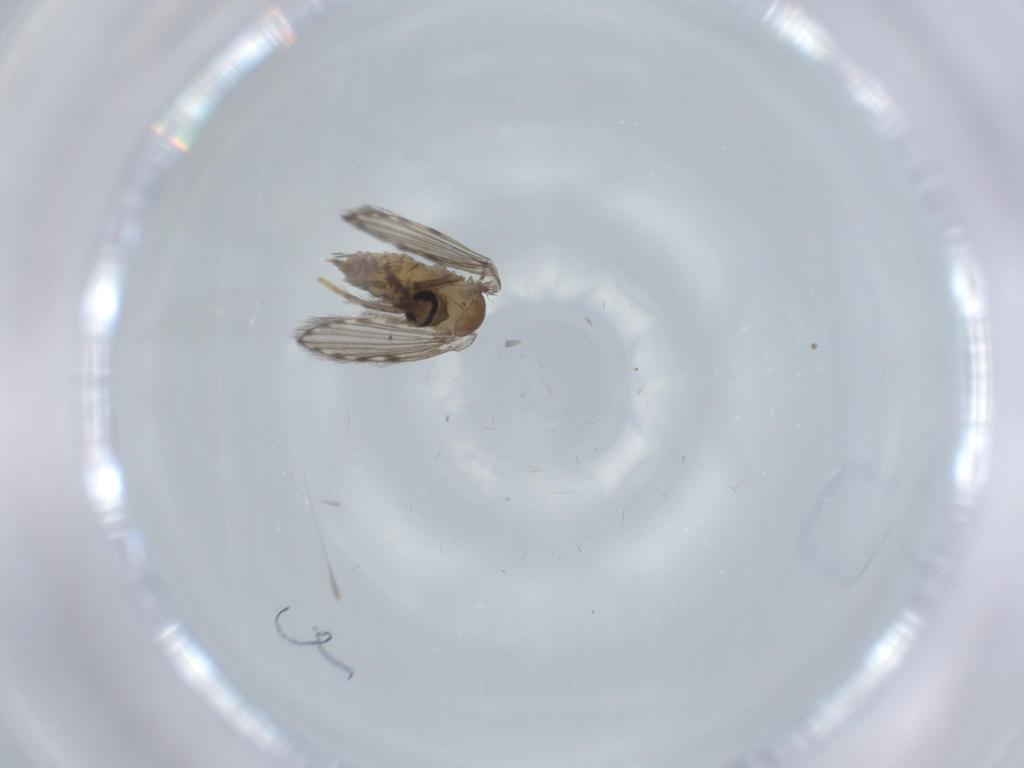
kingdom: Animalia
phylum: Arthropoda
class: Insecta
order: Diptera
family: Psychodidae
